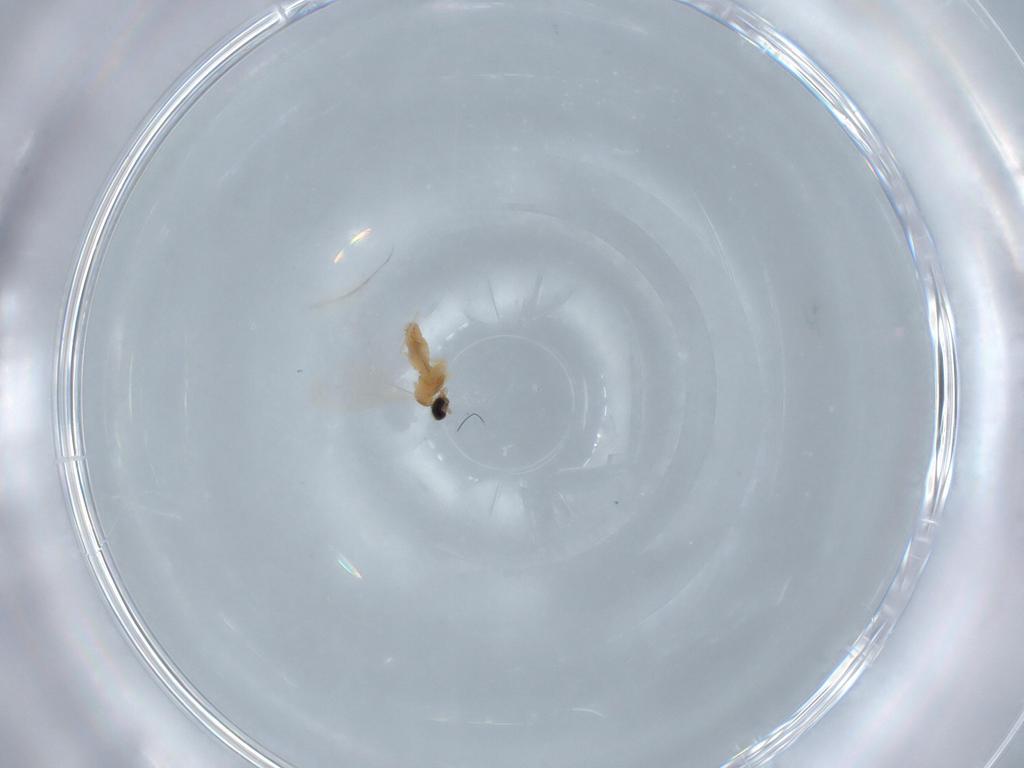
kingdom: Animalia
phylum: Arthropoda
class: Insecta
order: Diptera
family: Cecidomyiidae
